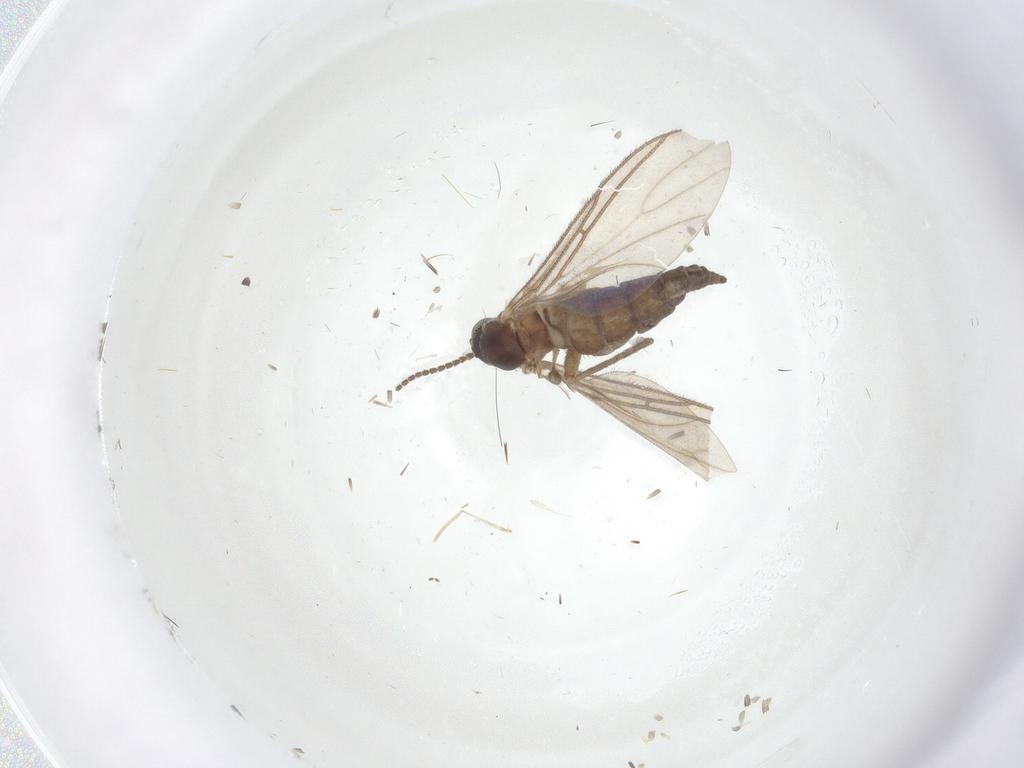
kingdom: Animalia
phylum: Arthropoda
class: Insecta
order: Diptera
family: Sciaridae
